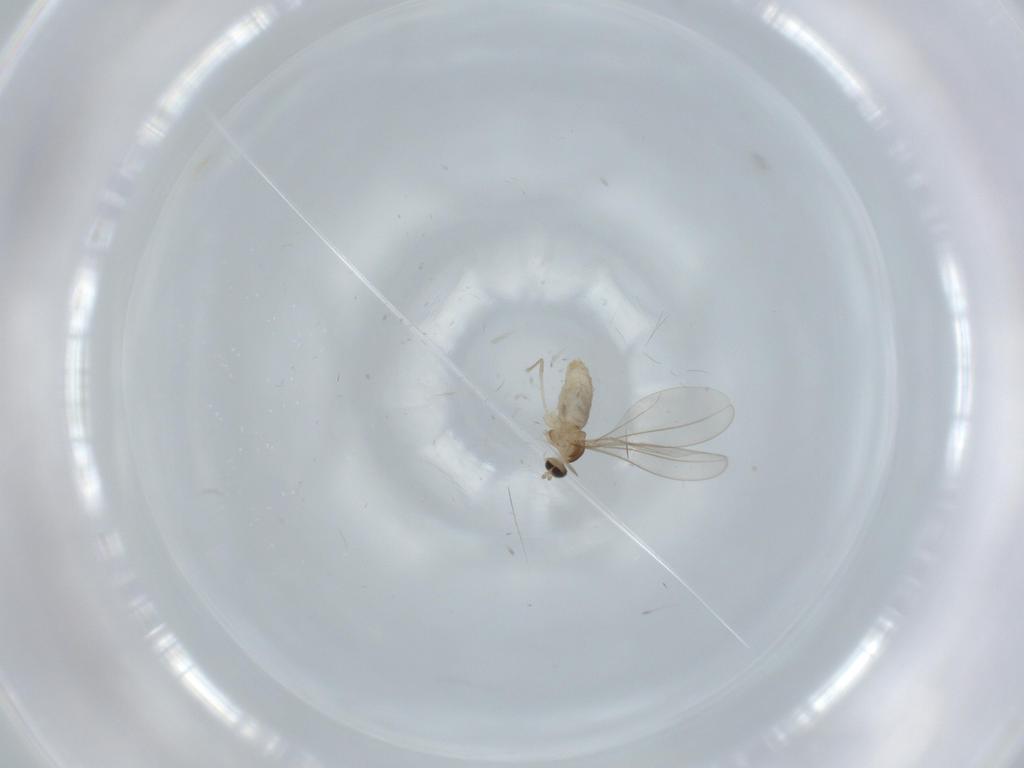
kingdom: Animalia
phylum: Arthropoda
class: Insecta
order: Diptera
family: Cecidomyiidae
